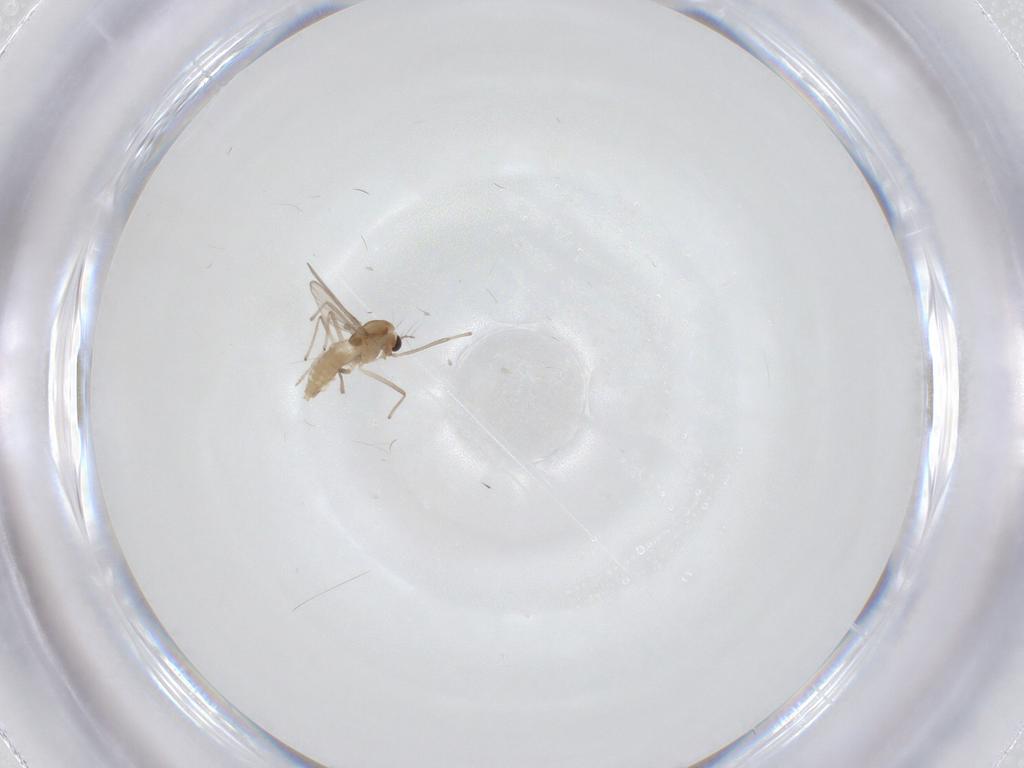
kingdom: Animalia
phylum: Arthropoda
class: Insecta
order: Diptera
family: Chironomidae
